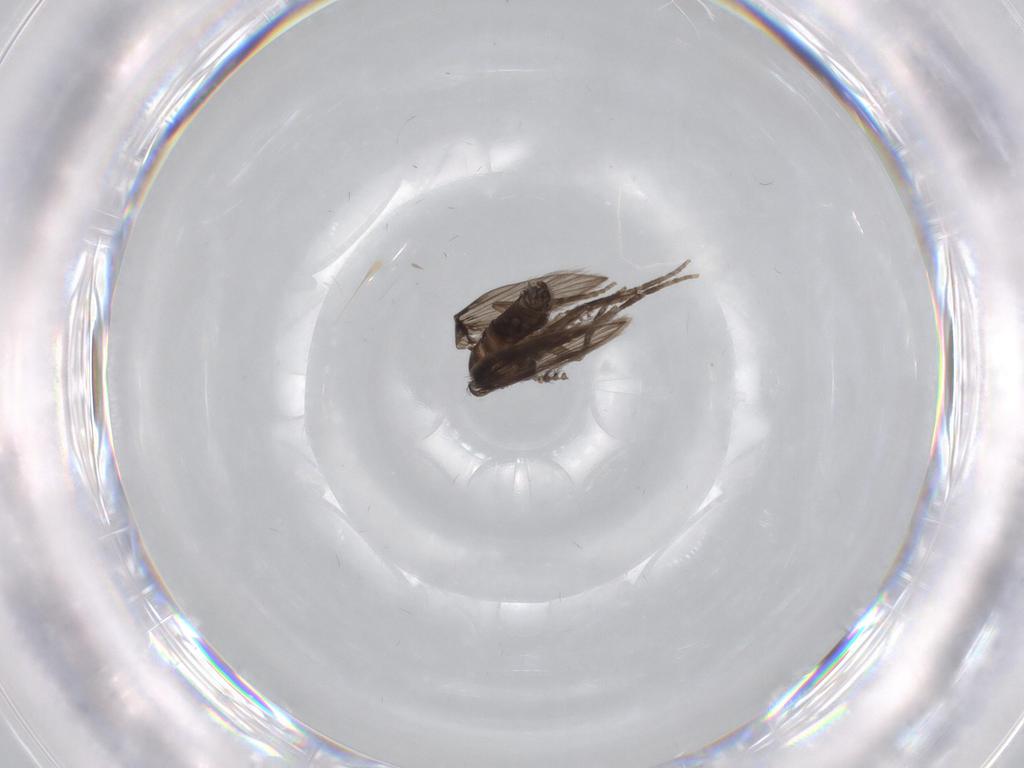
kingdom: Animalia
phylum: Arthropoda
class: Insecta
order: Diptera
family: Psychodidae
